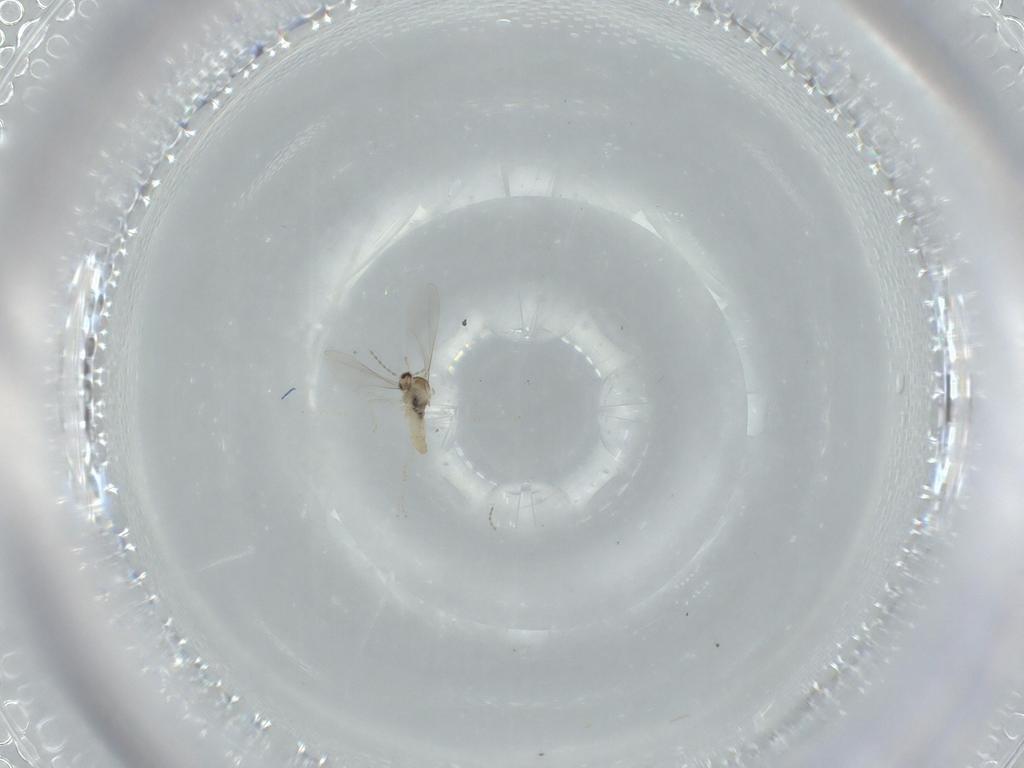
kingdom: Animalia
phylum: Arthropoda
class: Insecta
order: Diptera
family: Cecidomyiidae
